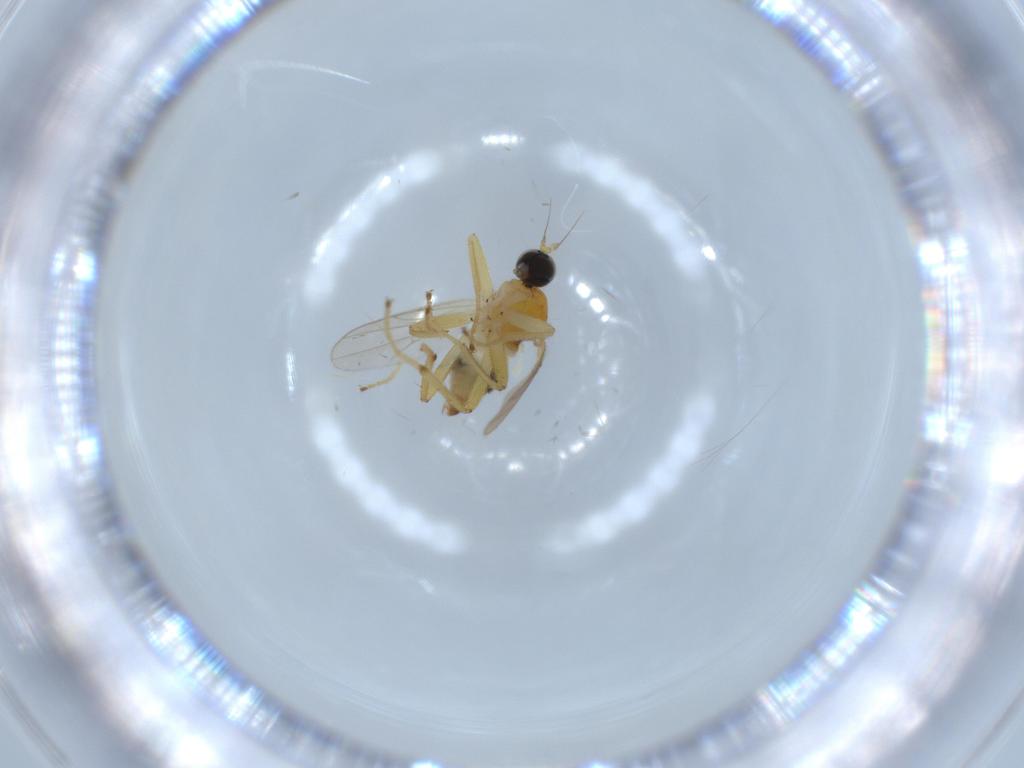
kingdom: Animalia
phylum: Arthropoda
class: Insecta
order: Diptera
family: Hybotidae
